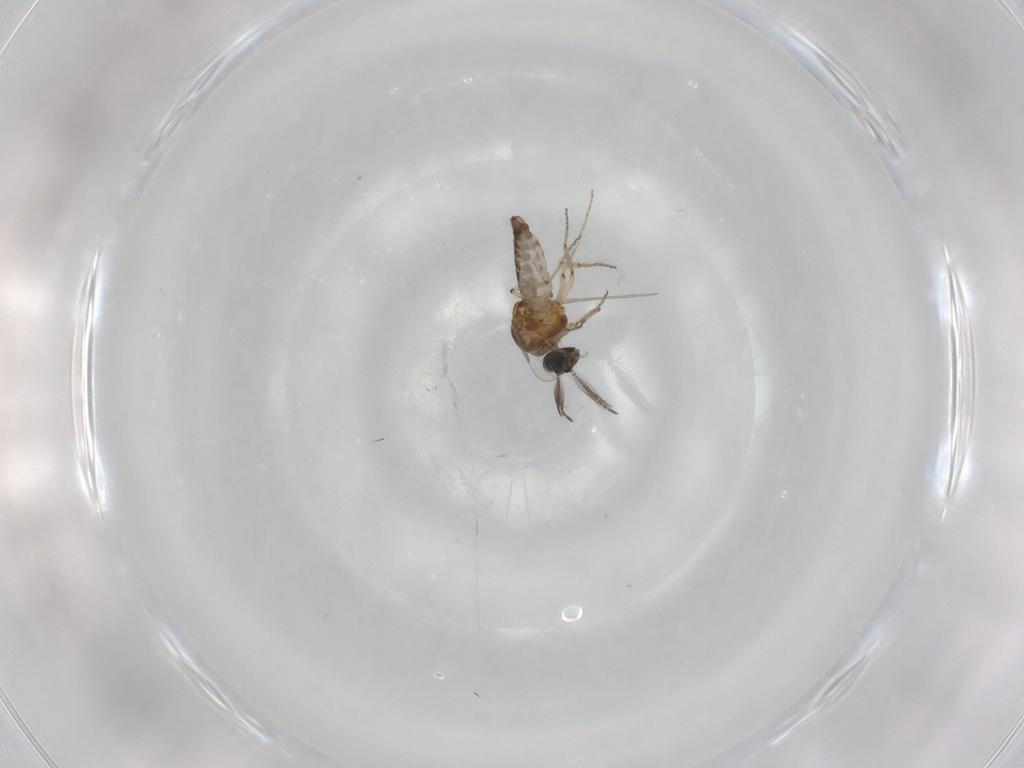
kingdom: Animalia
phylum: Arthropoda
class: Insecta
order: Diptera
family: Ceratopogonidae
